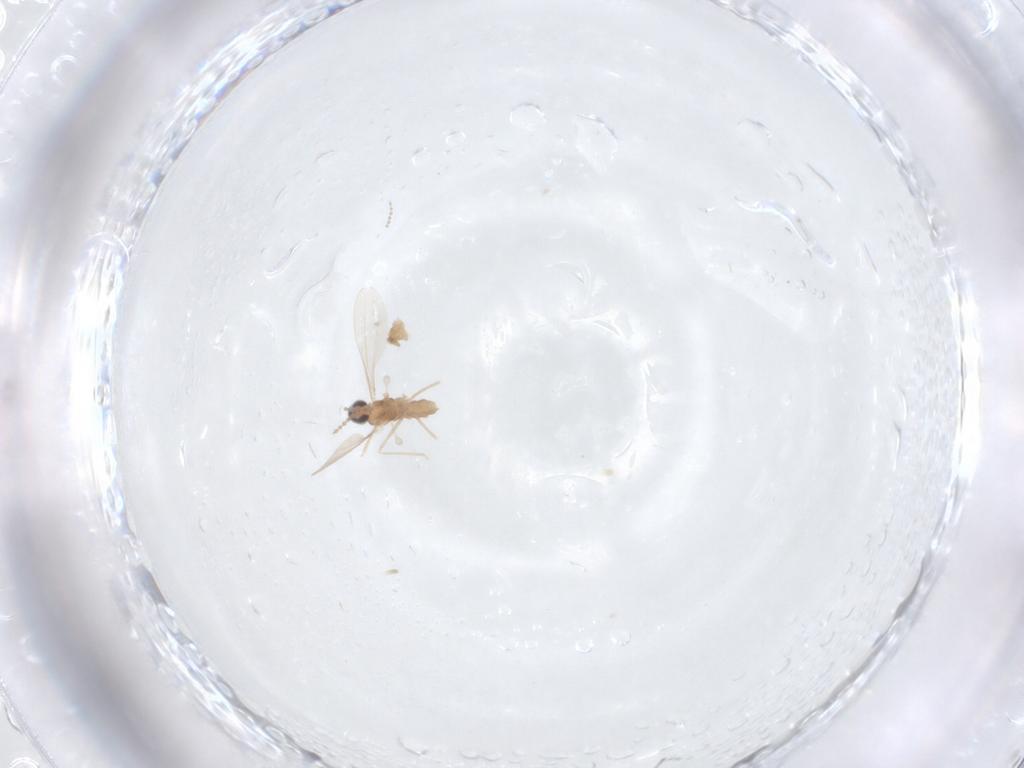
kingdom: Animalia
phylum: Arthropoda
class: Insecta
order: Diptera
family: Cecidomyiidae
